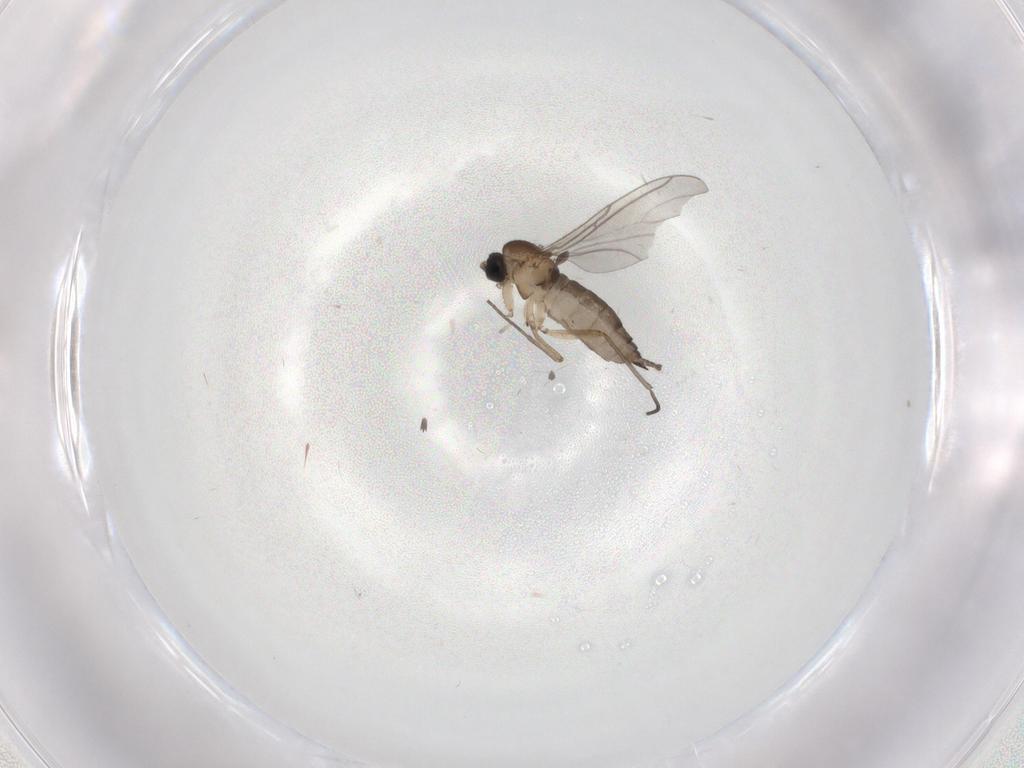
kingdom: Animalia
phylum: Arthropoda
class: Insecta
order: Diptera
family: Sciaridae
